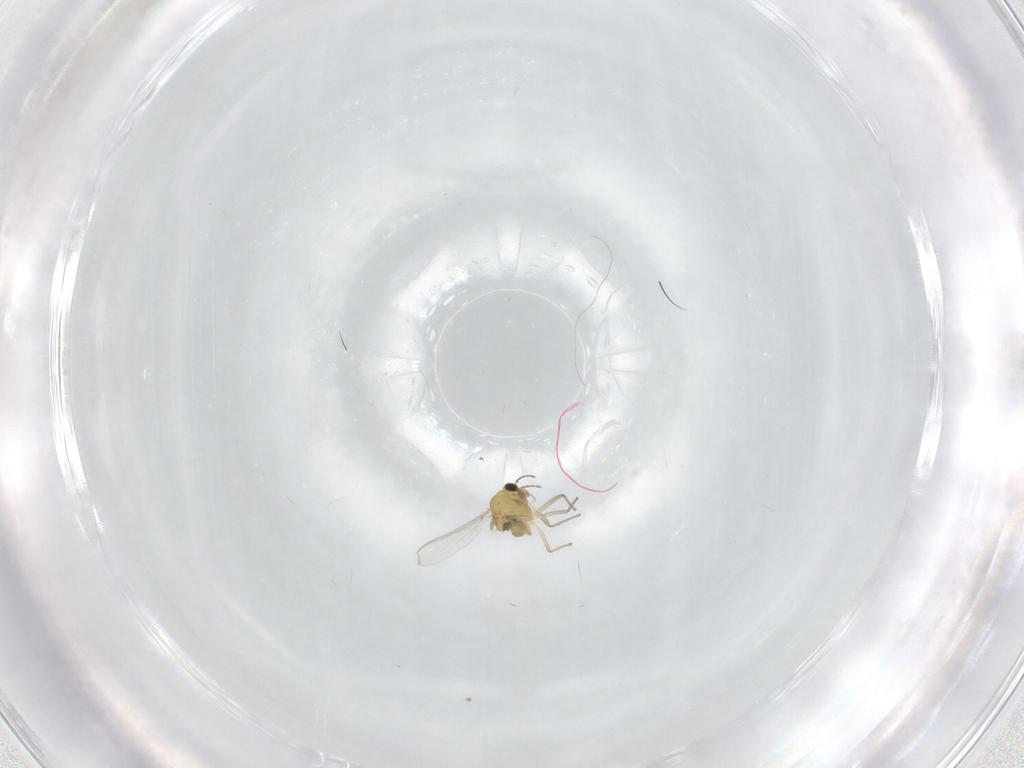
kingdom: Animalia
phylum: Arthropoda
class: Insecta
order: Diptera
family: Chironomidae
